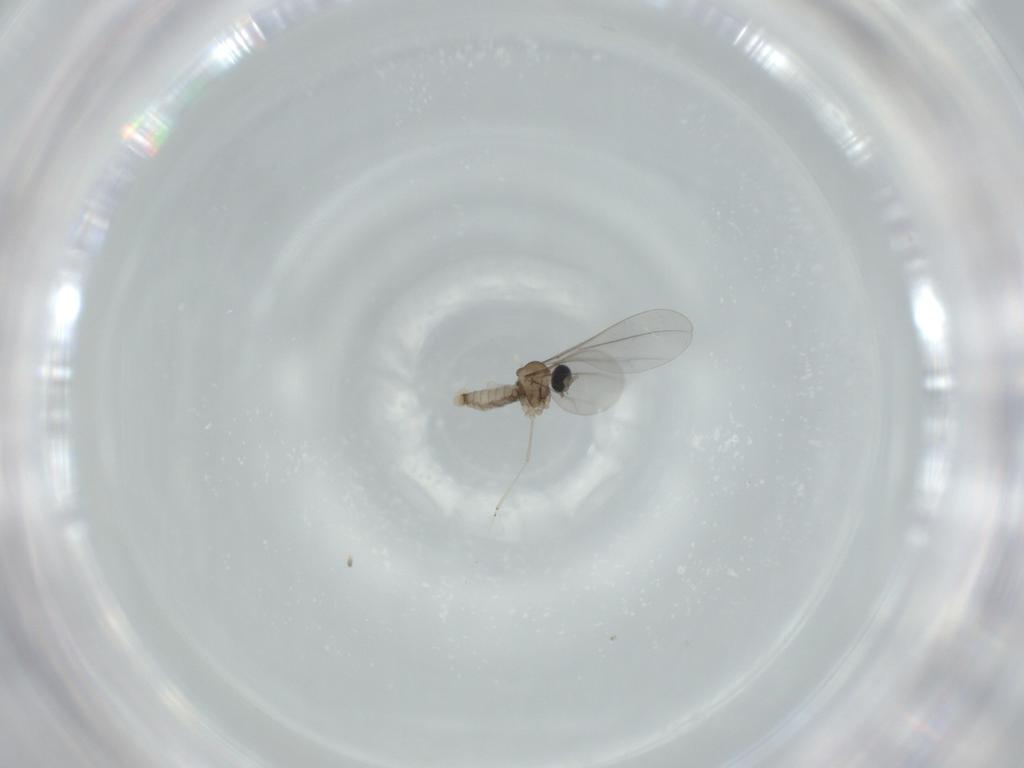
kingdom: Animalia
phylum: Arthropoda
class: Insecta
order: Diptera
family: Cecidomyiidae
